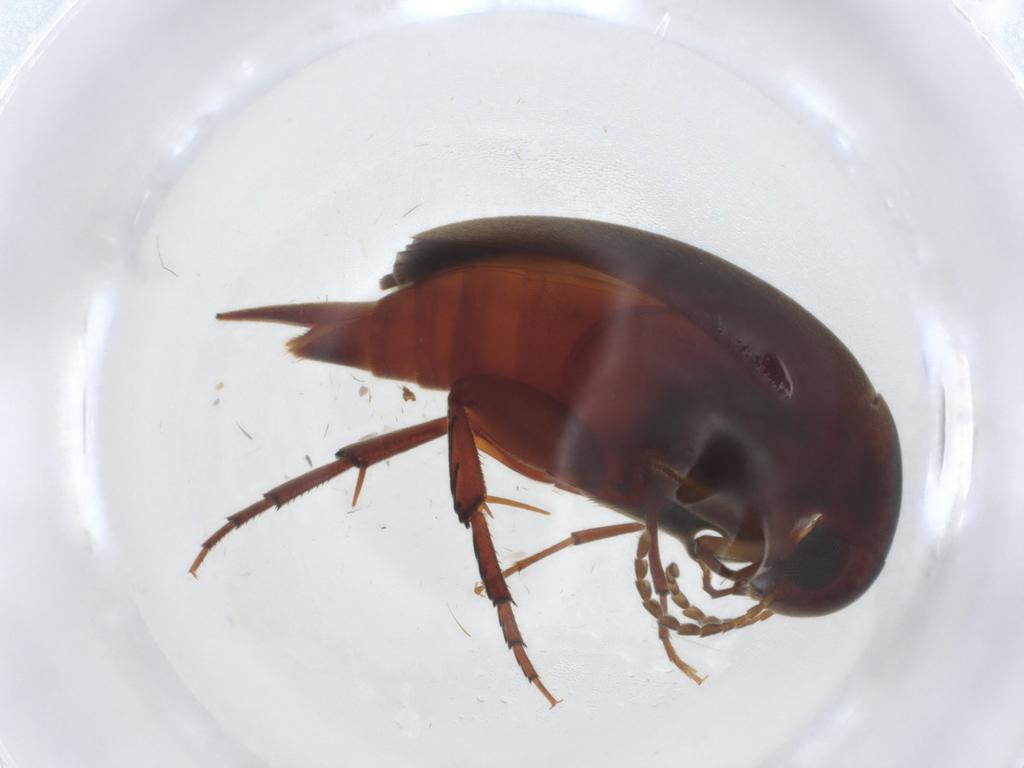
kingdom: Animalia
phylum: Arthropoda
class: Insecta
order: Coleoptera
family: Mordellidae
